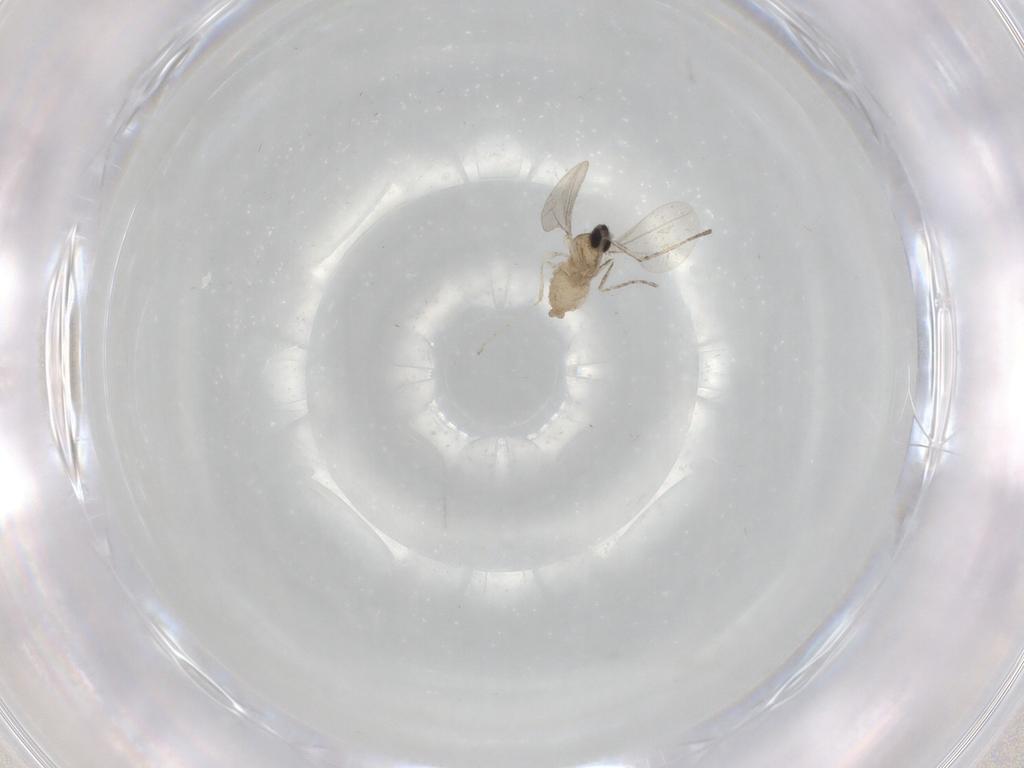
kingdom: Animalia
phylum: Arthropoda
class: Insecta
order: Diptera
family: Cecidomyiidae
